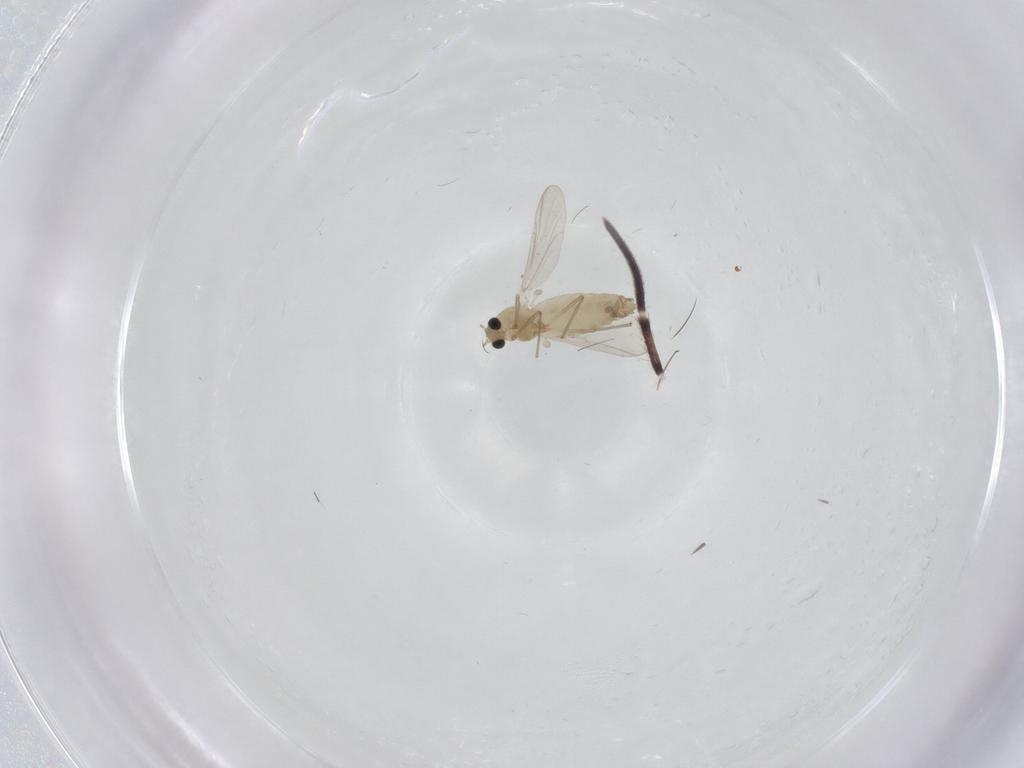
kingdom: Animalia
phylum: Arthropoda
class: Insecta
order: Diptera
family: Chironomidae
